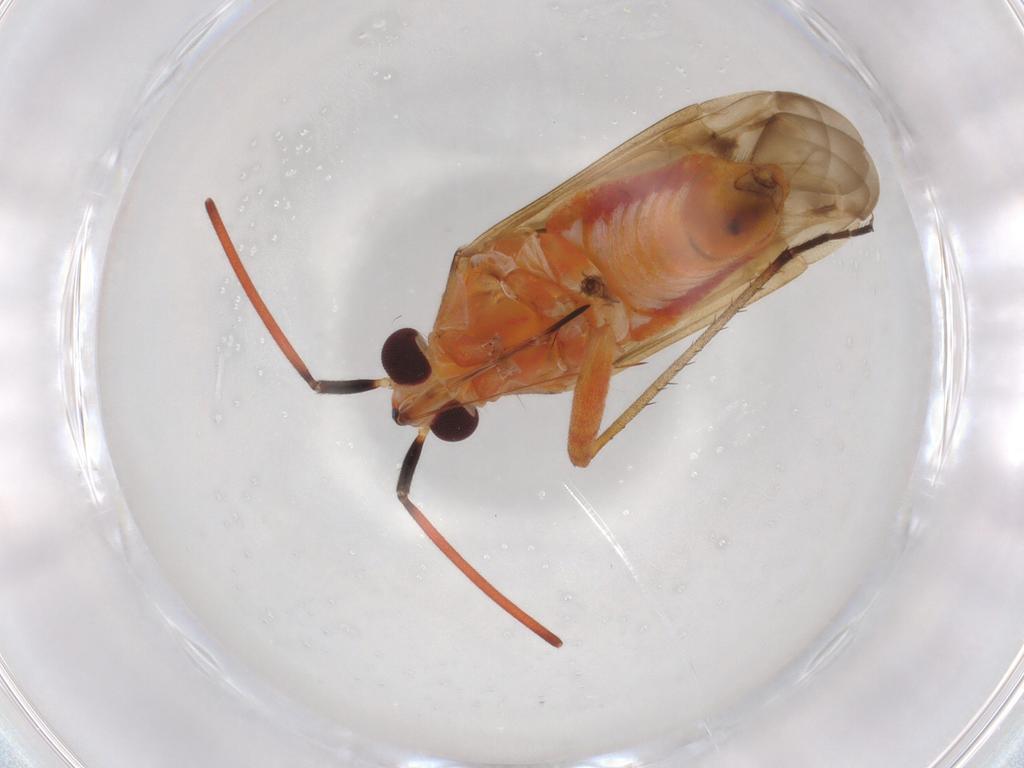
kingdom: Animalia
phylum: Arthropoda
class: Insecta
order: Hemiptera
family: Miridae
